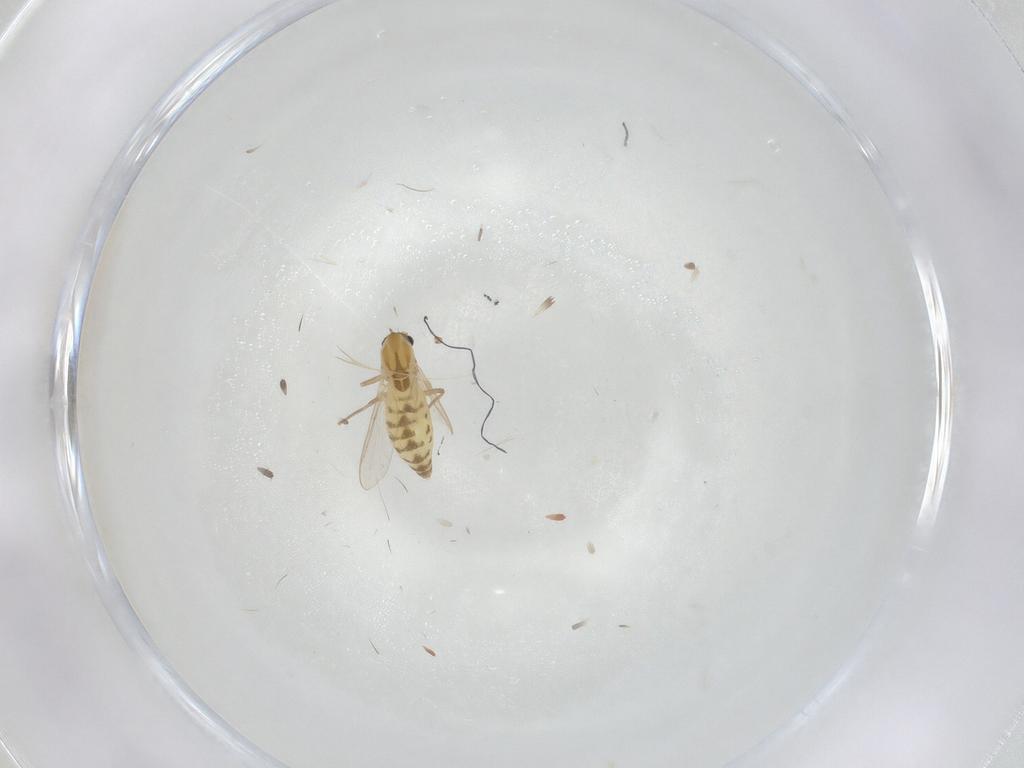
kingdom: Animalia
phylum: Arthropoda
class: Insecta
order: Diptera
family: Chironomidae
